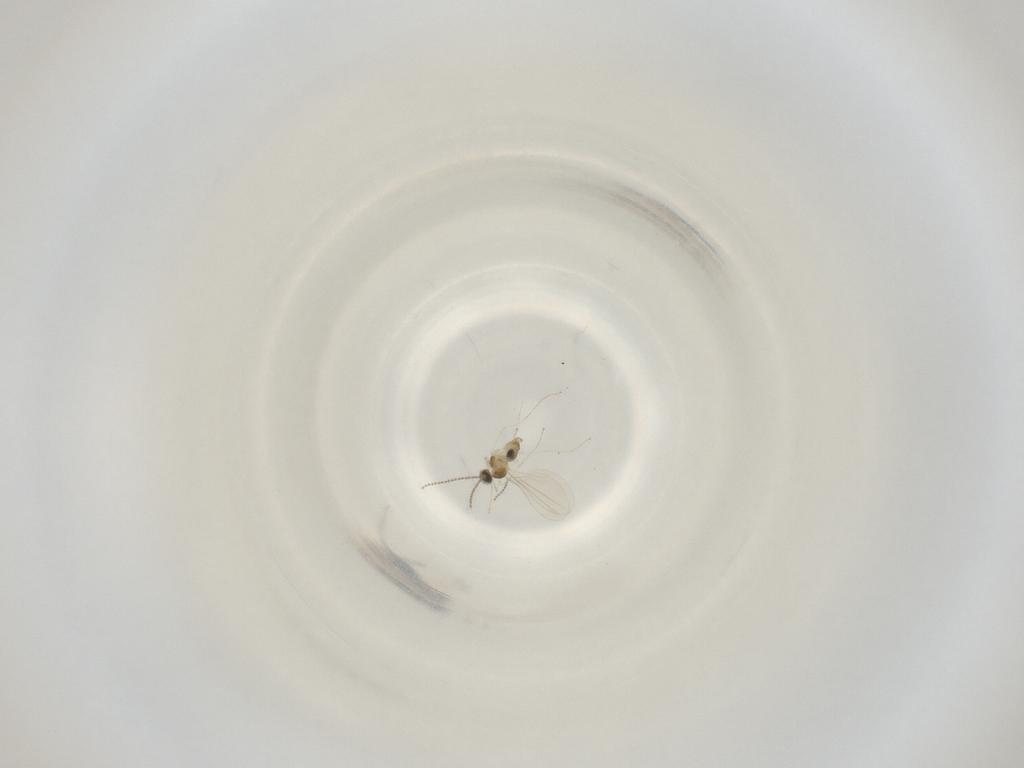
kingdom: Animalia
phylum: Arthropoda
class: Insecta
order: Diptera
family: Cecidomyiidae
